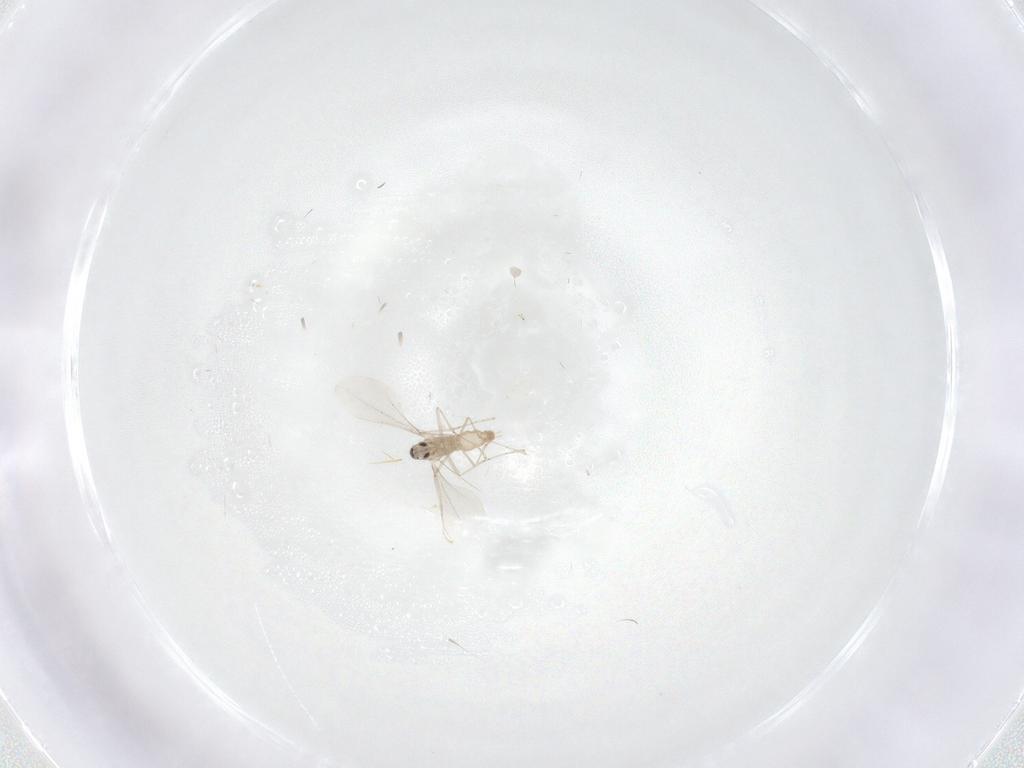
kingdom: Animalia
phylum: Arthropoda
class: Insecta
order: Diptera
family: Cecidomyiidae
